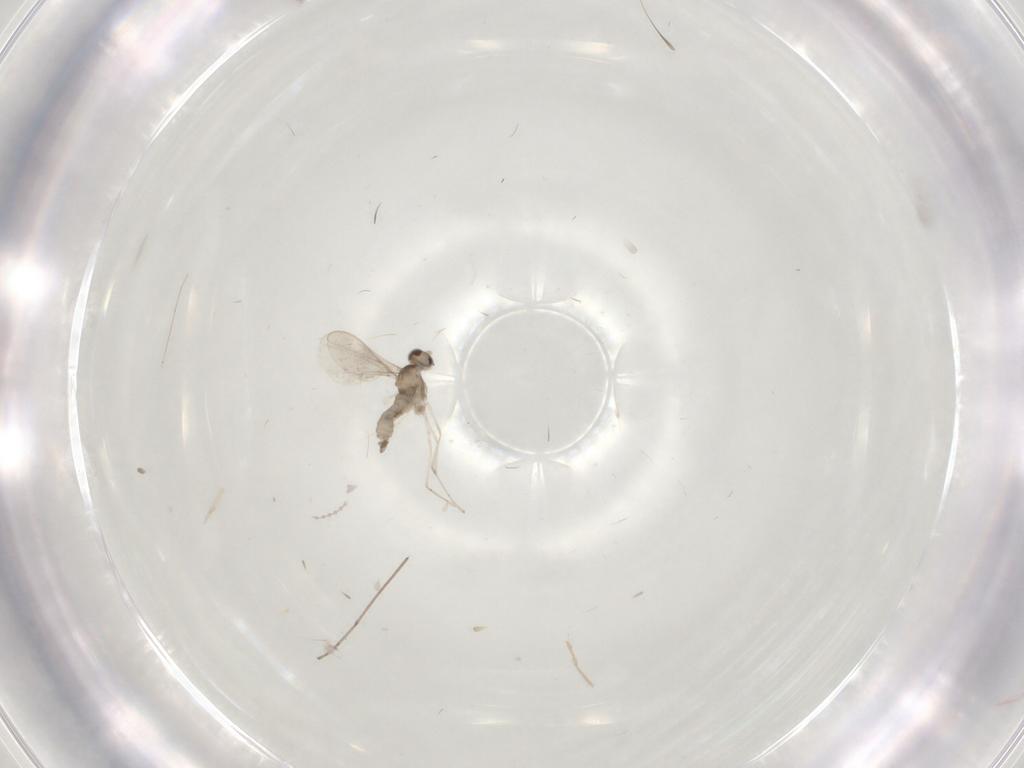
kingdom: Animalia
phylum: Arthropoda
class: Insecta
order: Diptera
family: Cecidomyiidae
